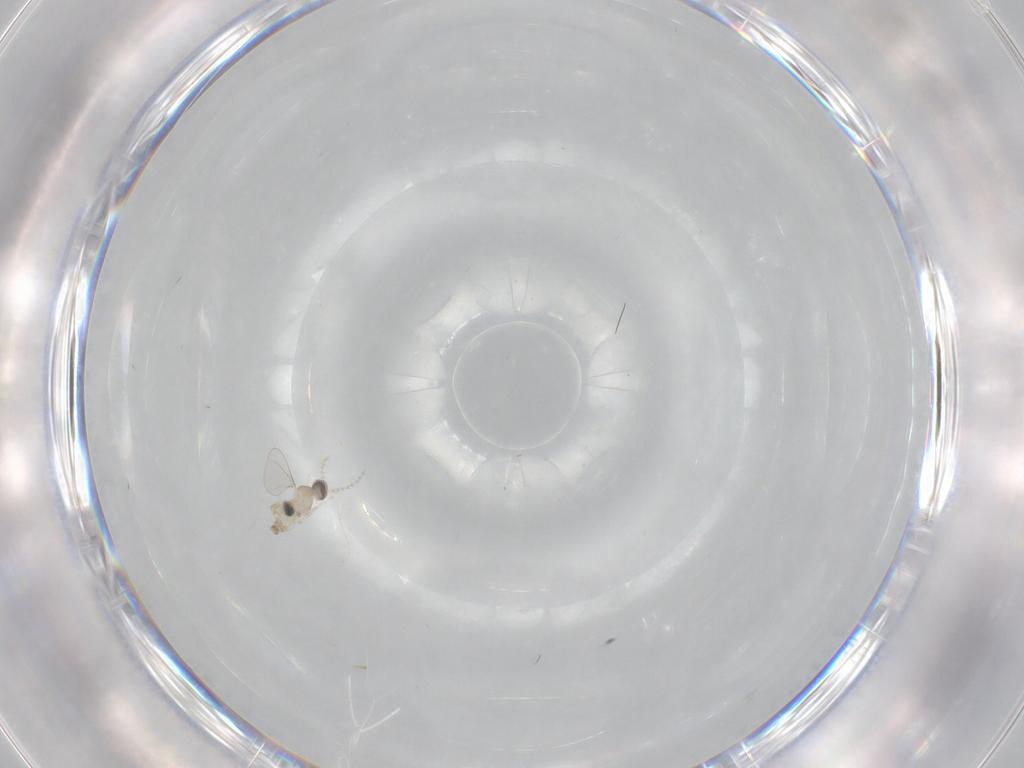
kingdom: Animalia
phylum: Arthropoda
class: Insecta
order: Diptera
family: Cecidomyiidae
